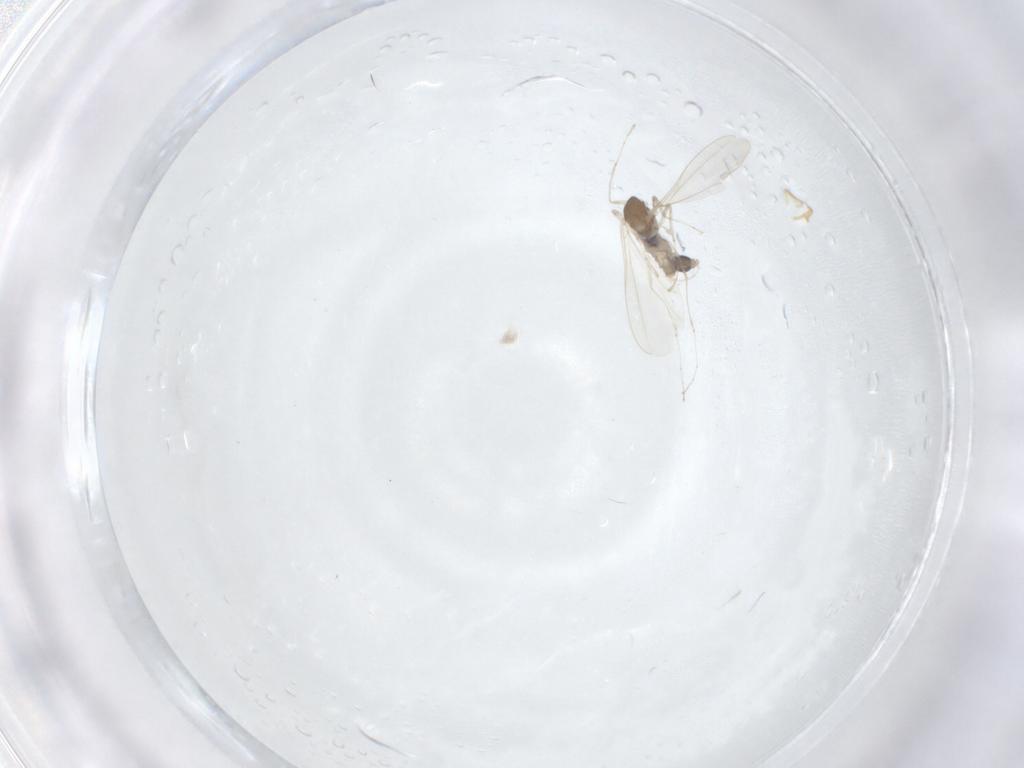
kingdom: Animalia
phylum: Arthropoda
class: Insecta
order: Diptera
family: Cecidomyiidae
